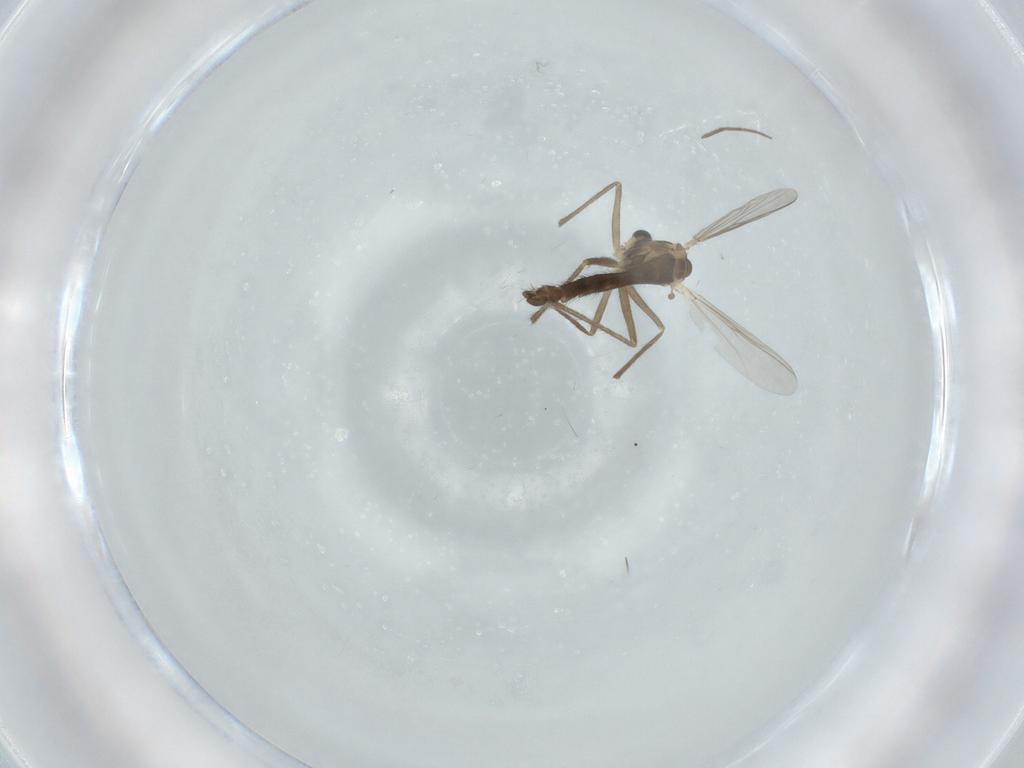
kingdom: Animalia
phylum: Arthropoda
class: Insecta
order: Diptera
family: Chironomidae
